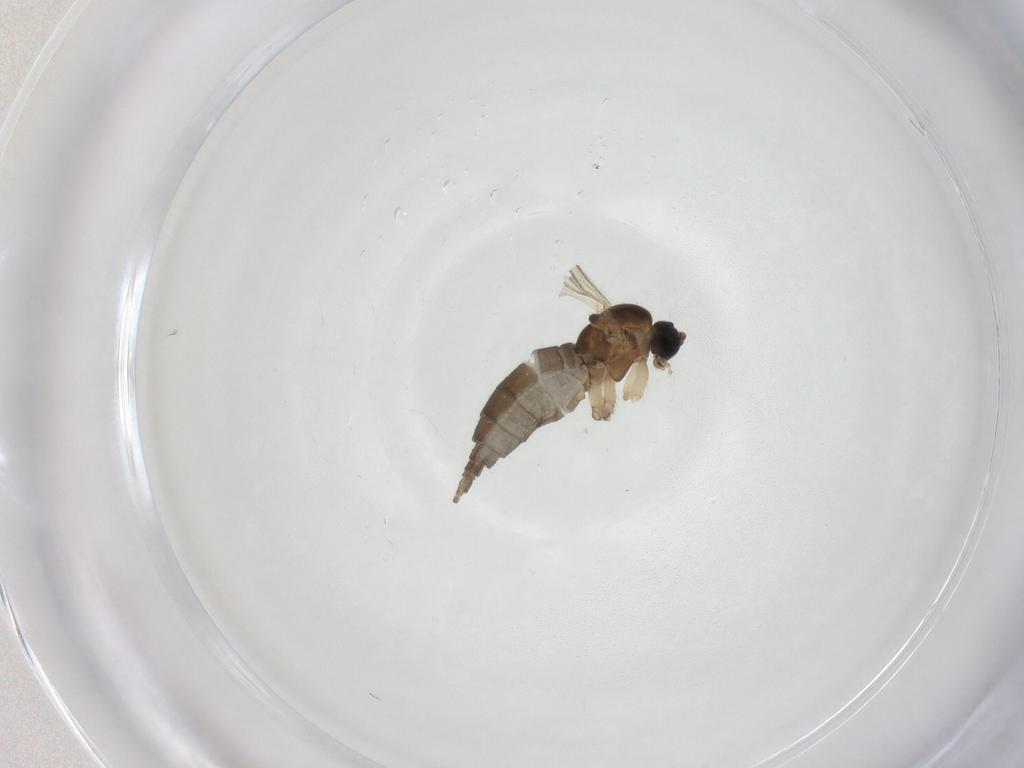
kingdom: Animalia
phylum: Arthropoda
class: Insecta
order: Diptera
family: Sciaridae
